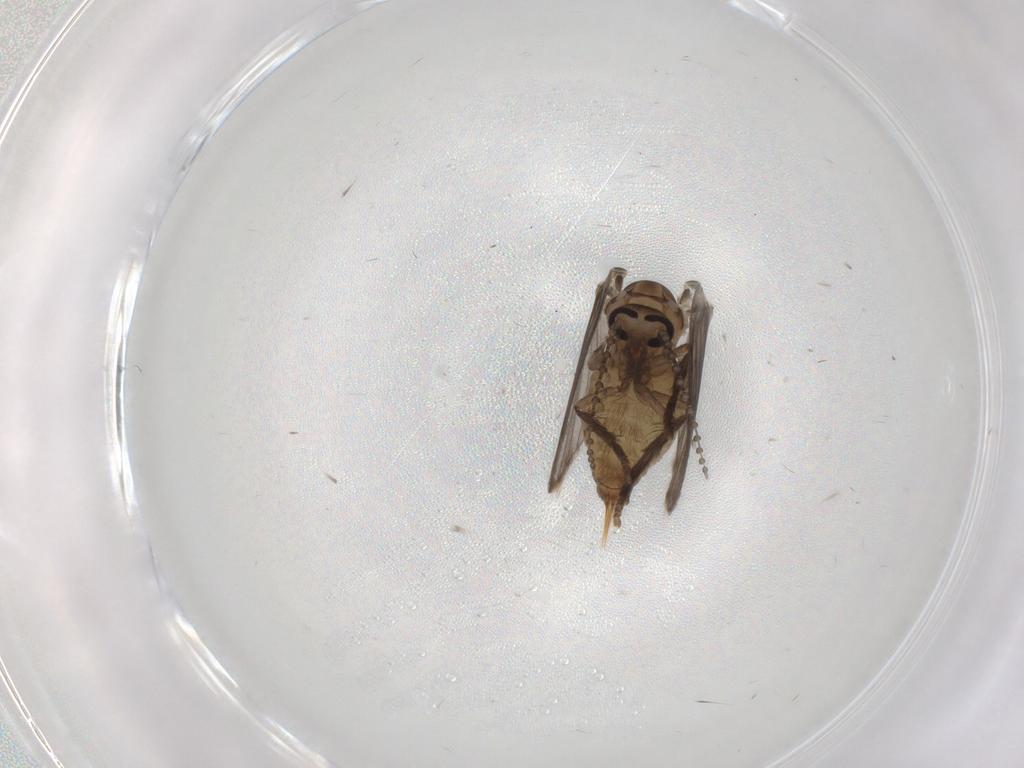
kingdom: Animalia
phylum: Arthropoda
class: Insecta
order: Diptera
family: Psychodidae
